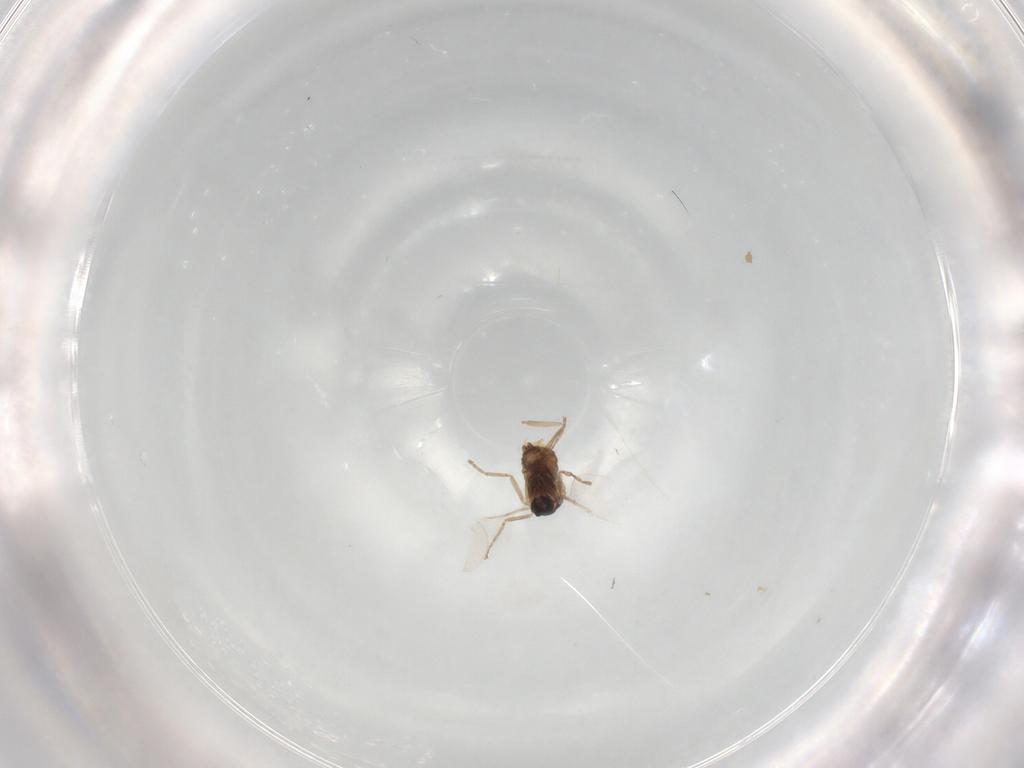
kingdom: Animalia
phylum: Arthropoda
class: Insecta
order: Diptera
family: Cecidomyiidae
